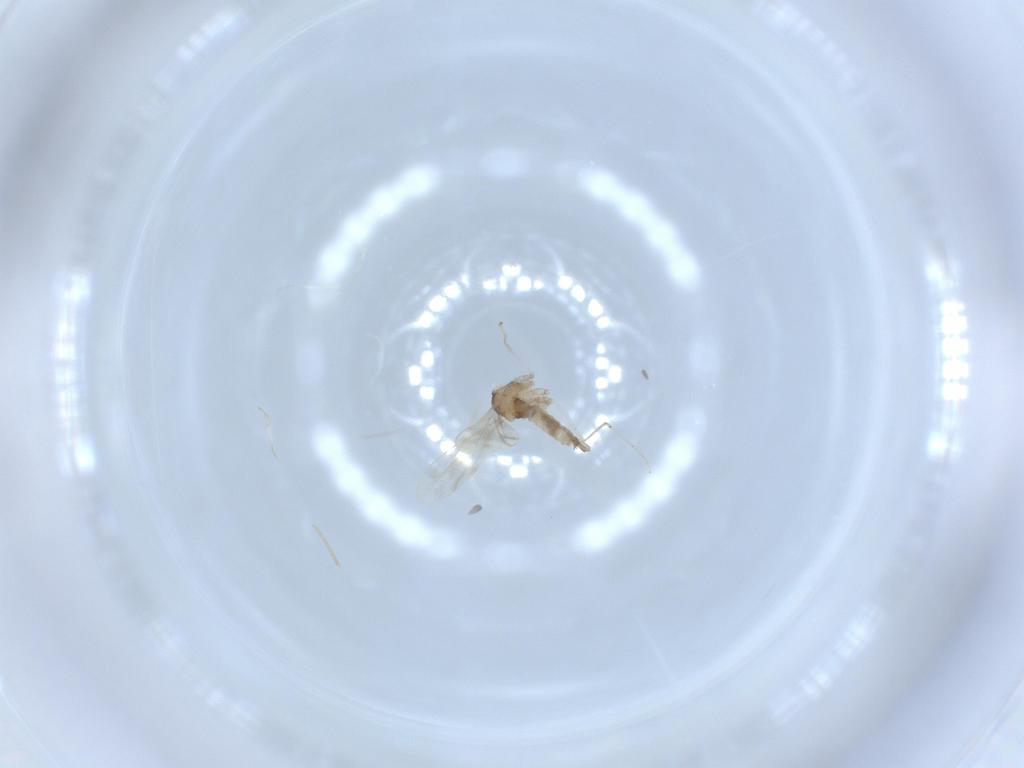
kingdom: Animalia
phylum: Arthropoda
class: Insecta
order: Diptera
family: Cecidomyiidae
